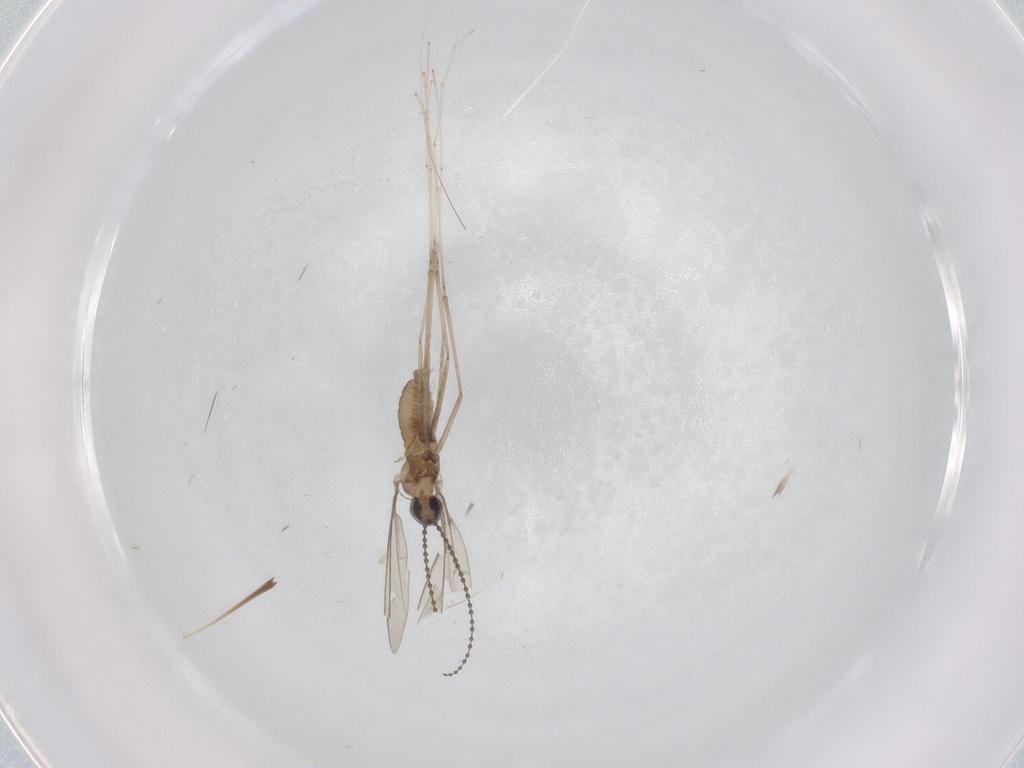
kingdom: Animalia
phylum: Arthropoda
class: Insecta
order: Diptera
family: Cecidomyiidae
